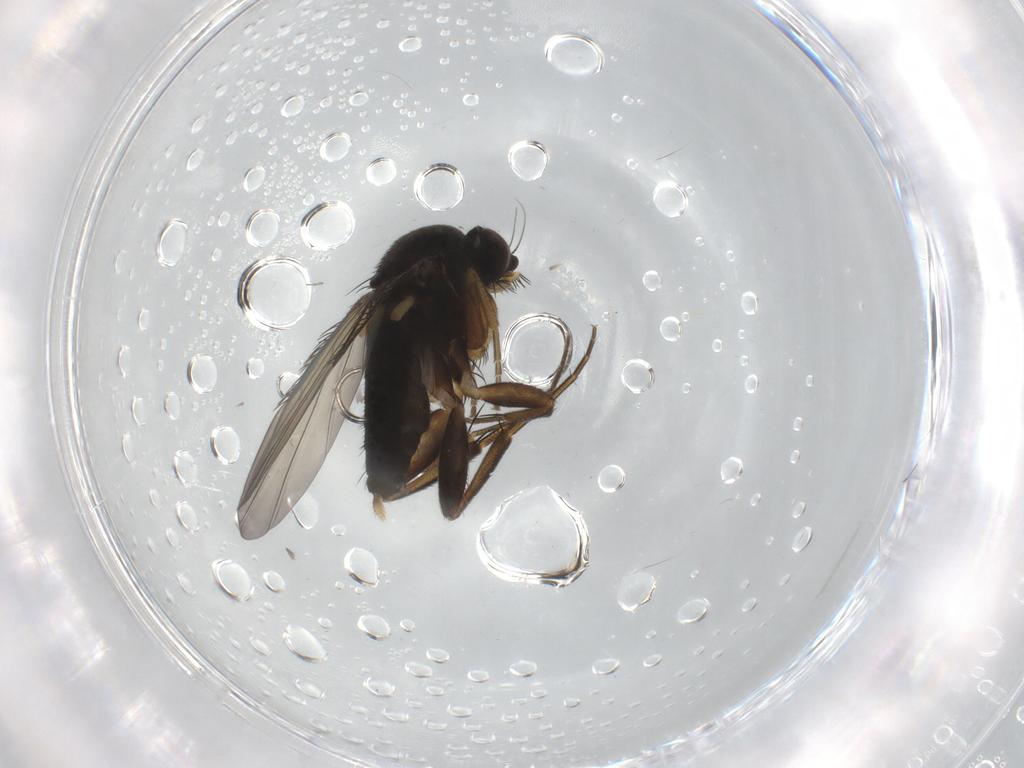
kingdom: Animalia
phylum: Arthropoda
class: Insecta
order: Diptera
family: Phoridae
